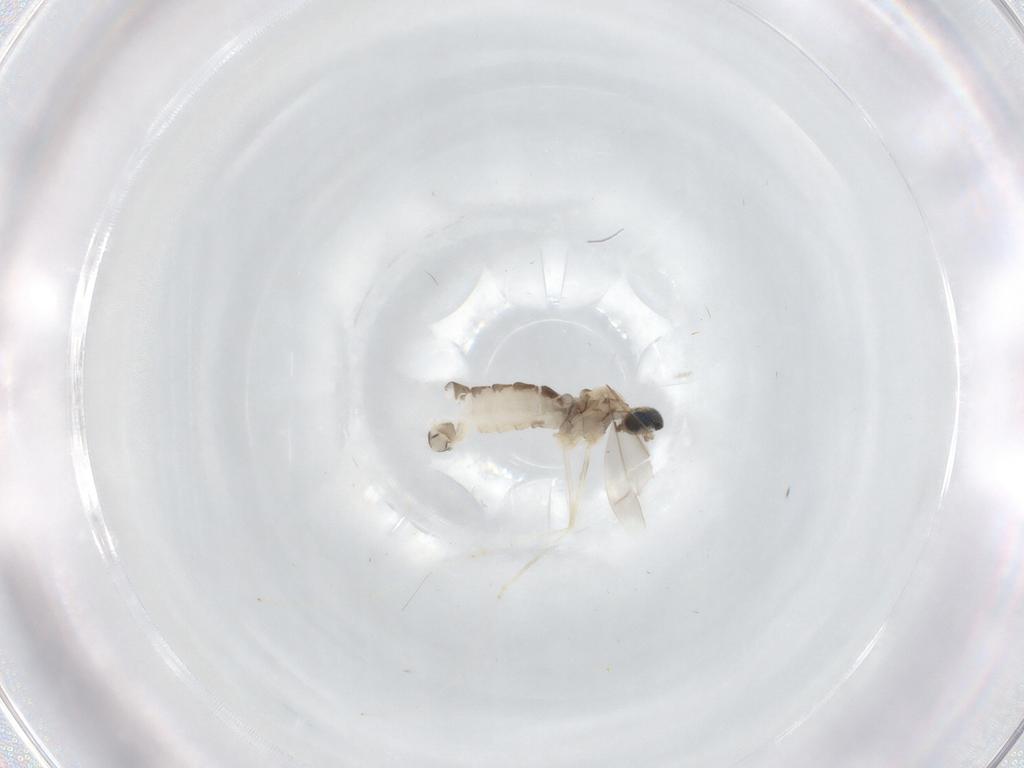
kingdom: Animalia
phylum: Arthropoda
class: Insecta
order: Diptera
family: Cecidomyiidae
